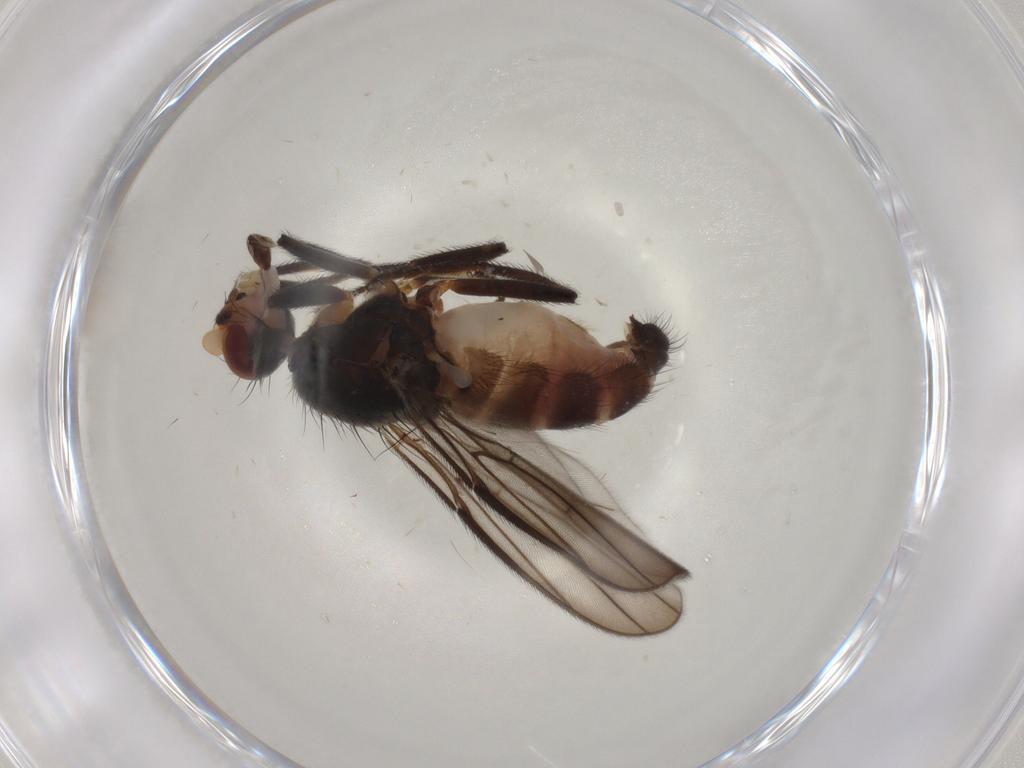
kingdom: Animalia
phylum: Arthropoda
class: Insecta
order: Diptera
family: Chloropidae
